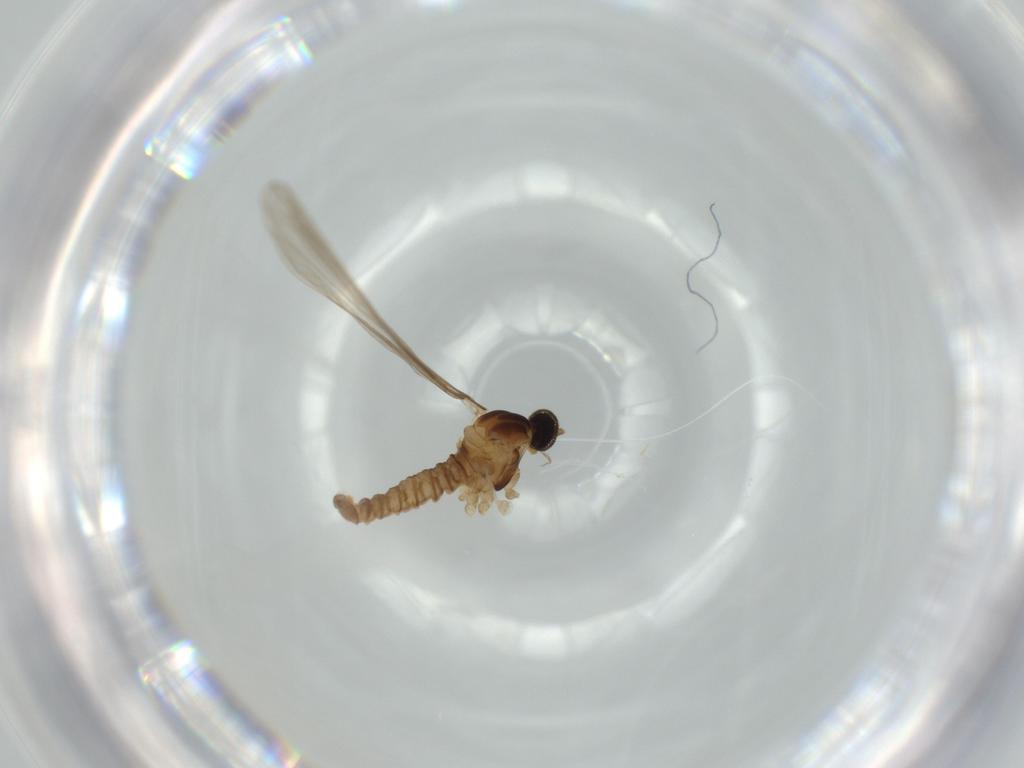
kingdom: Animalia
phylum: Arthropoda
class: Insecta
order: Diptera
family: Cecidomyiidae
